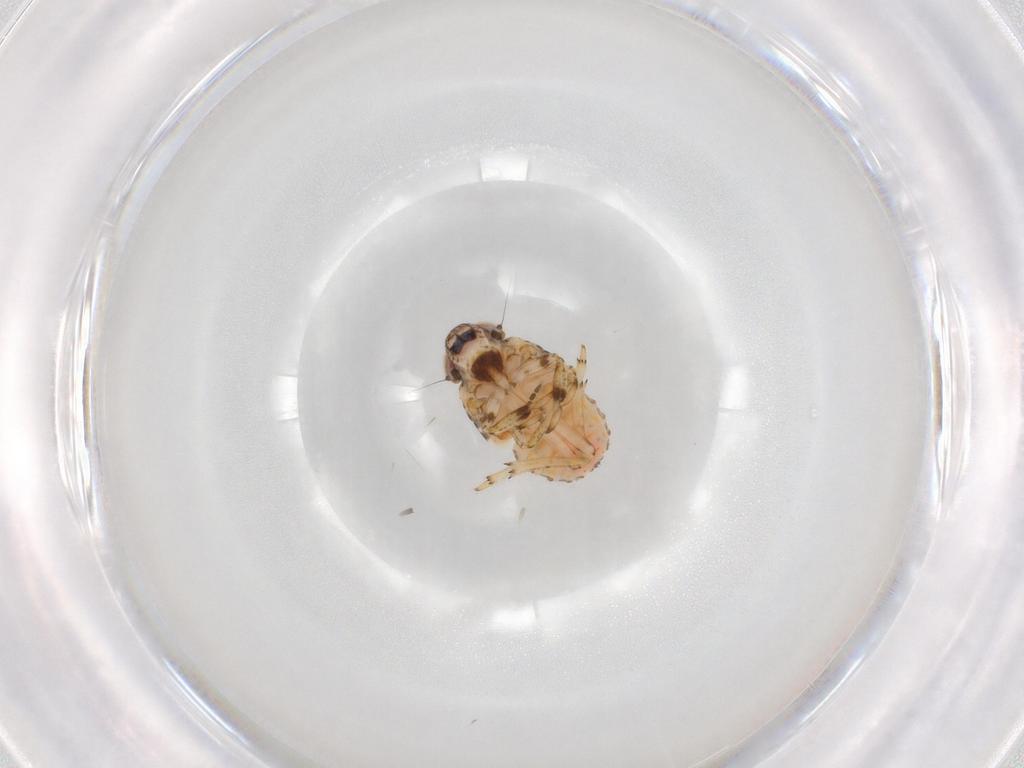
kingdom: Animalia
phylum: Arthropoda
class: Insecta
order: Hemiptera
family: Issidae
